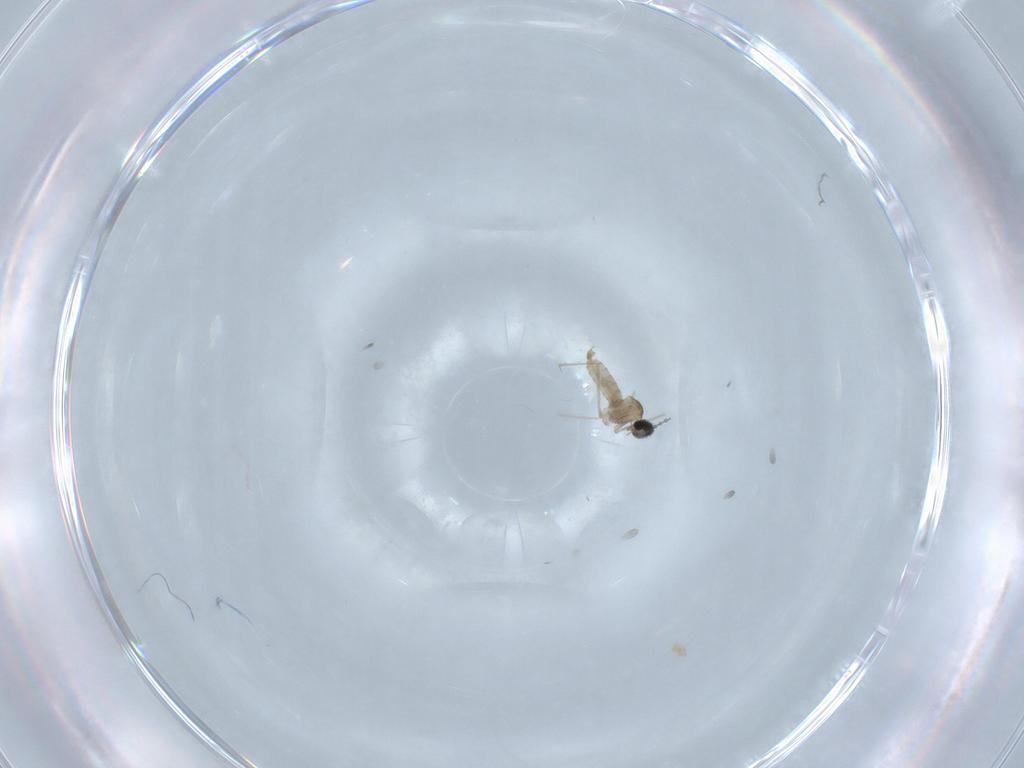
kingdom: Animalia
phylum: Arthropoda
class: Insecta
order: Diptera
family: Cecidomyiidae
